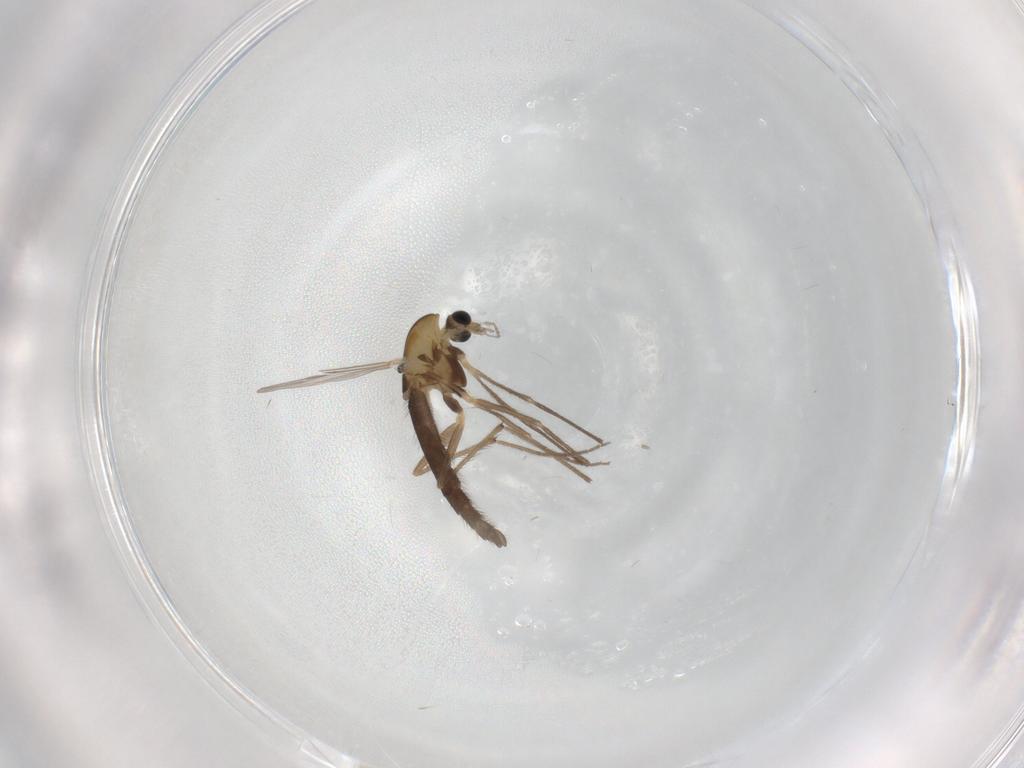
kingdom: Animalia
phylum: Arthropoda
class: Insecta
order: Diptera
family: Chironomidae
